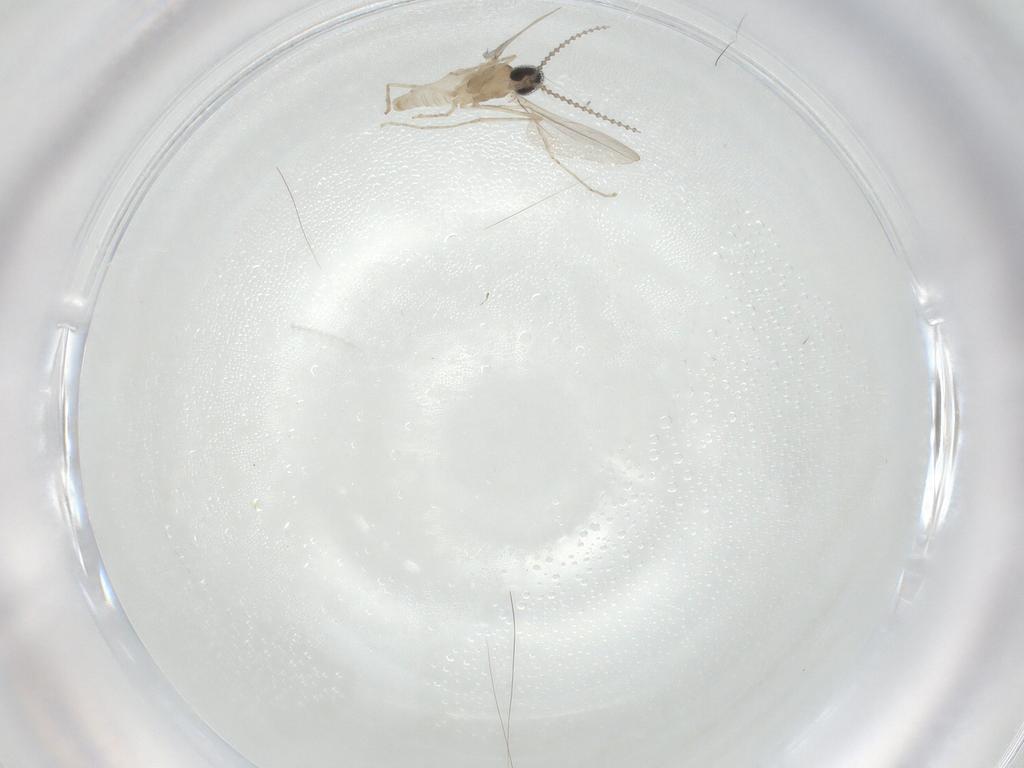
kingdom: Animalia
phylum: Arthropoda
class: Insecta
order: Diptera
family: Cecidomyiidae
